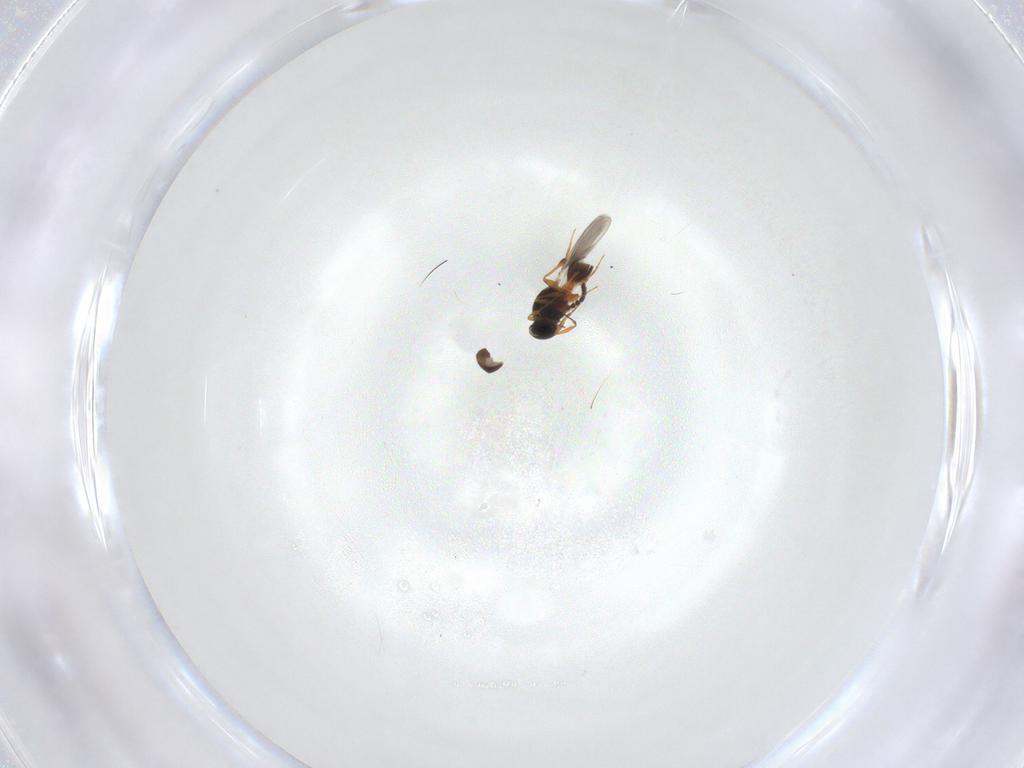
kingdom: Animalia
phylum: Arthropoda
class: Insecta
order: Hymenoptera
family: Platygastridae
